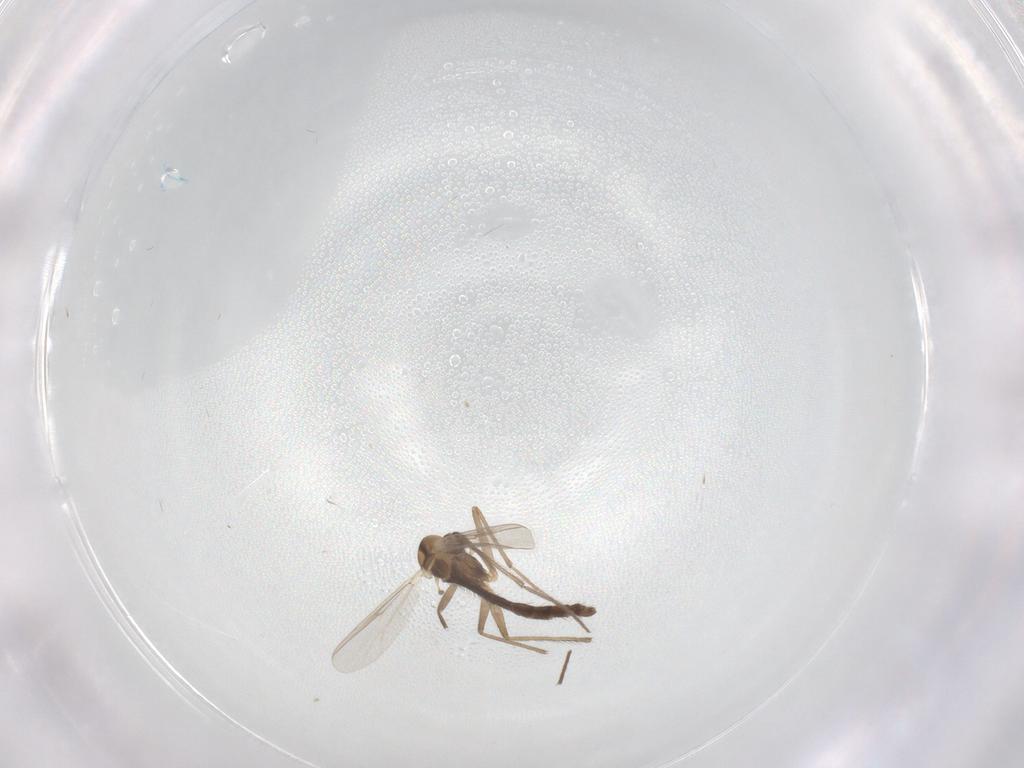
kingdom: Animalia
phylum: Arthropoda
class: Insecta
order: Diptera
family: Chironomidae
